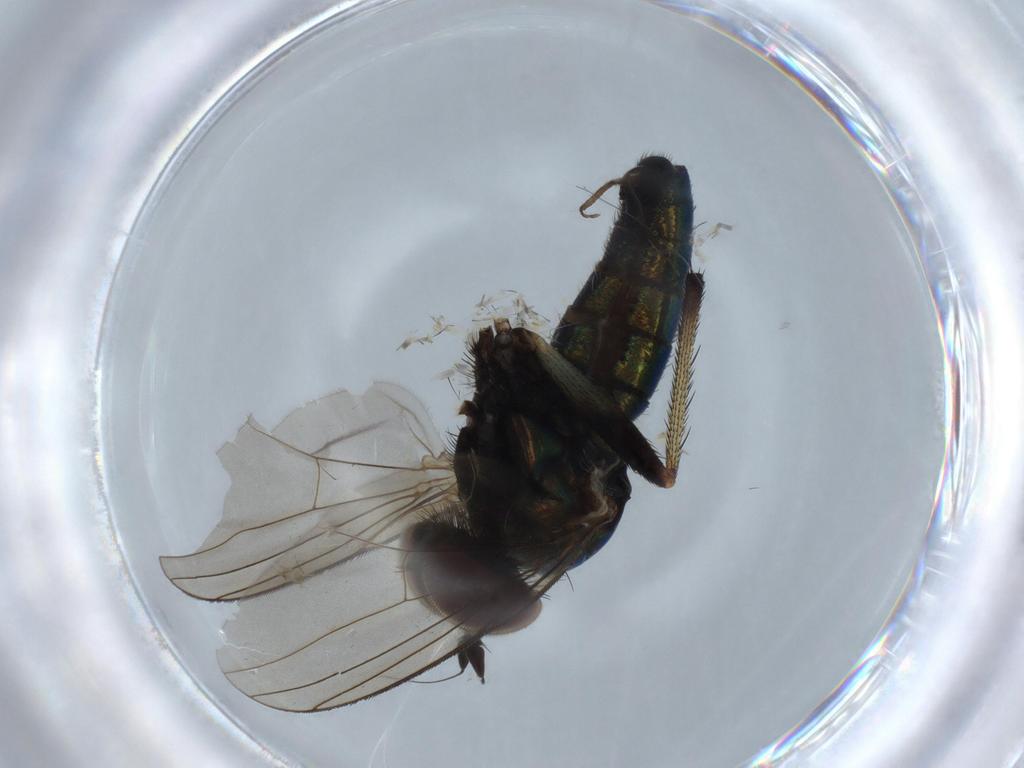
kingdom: Animalia
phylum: Arthropoda
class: Insecta
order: Diptera
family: Dolichopodidae
